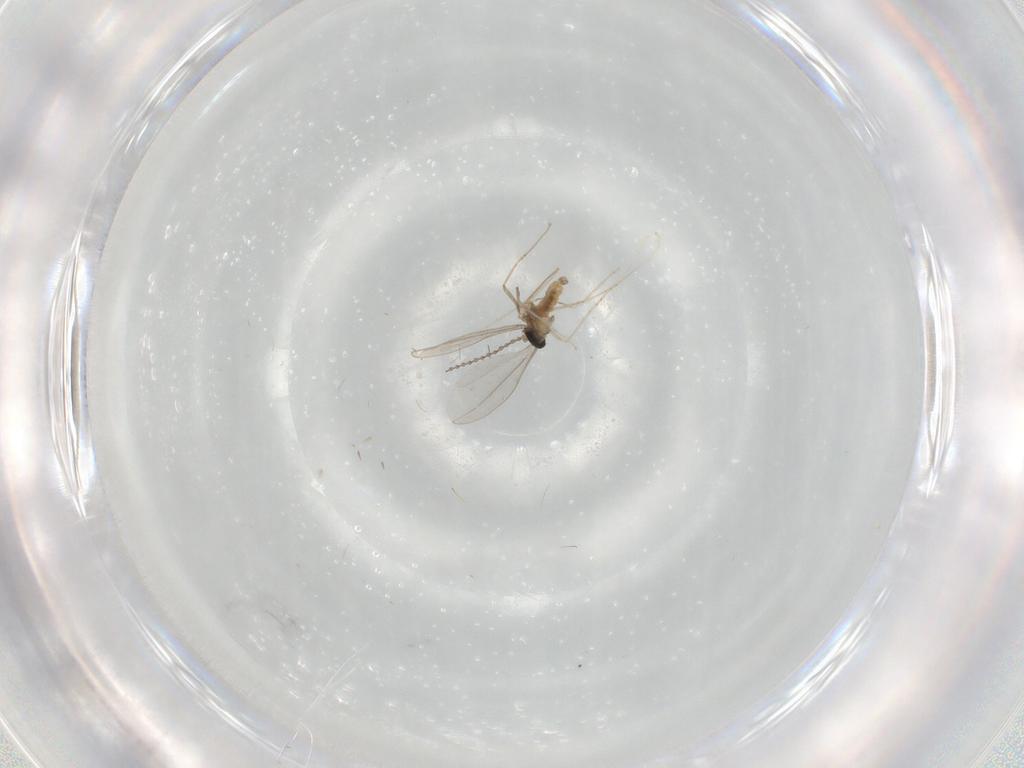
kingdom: Animalia
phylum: Arthropoda
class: Insecta
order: Diptera
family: Cecidomyiidae
